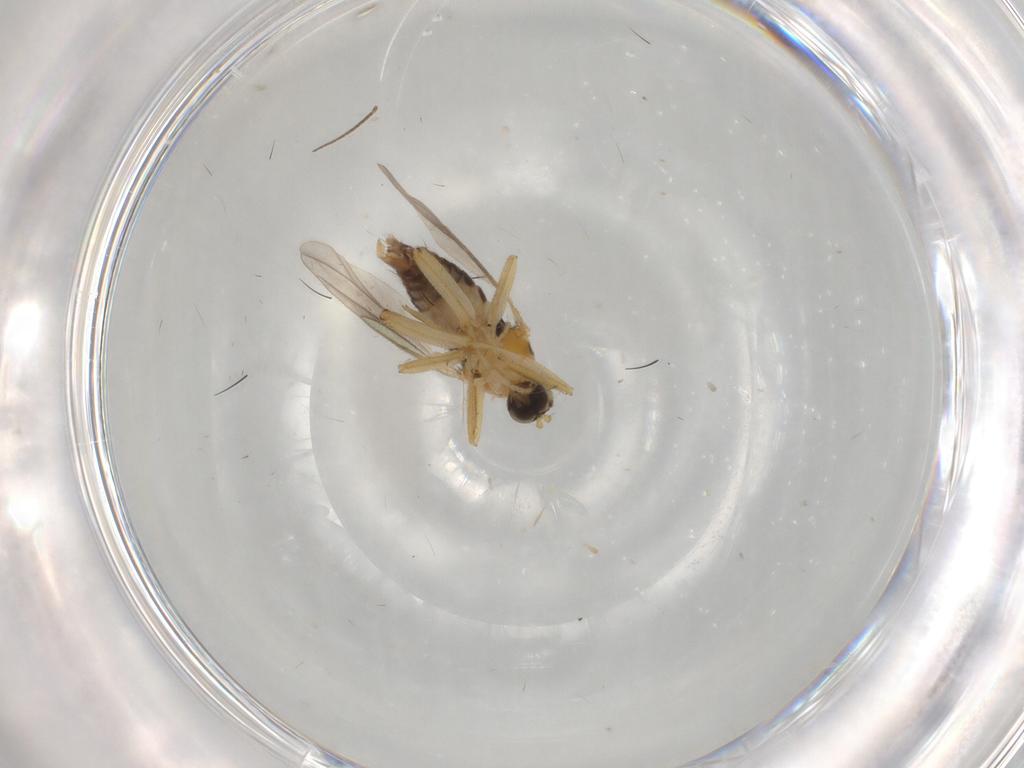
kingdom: Animalia
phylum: Arthropoda
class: Insecta
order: Diptera
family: Hybotidae
